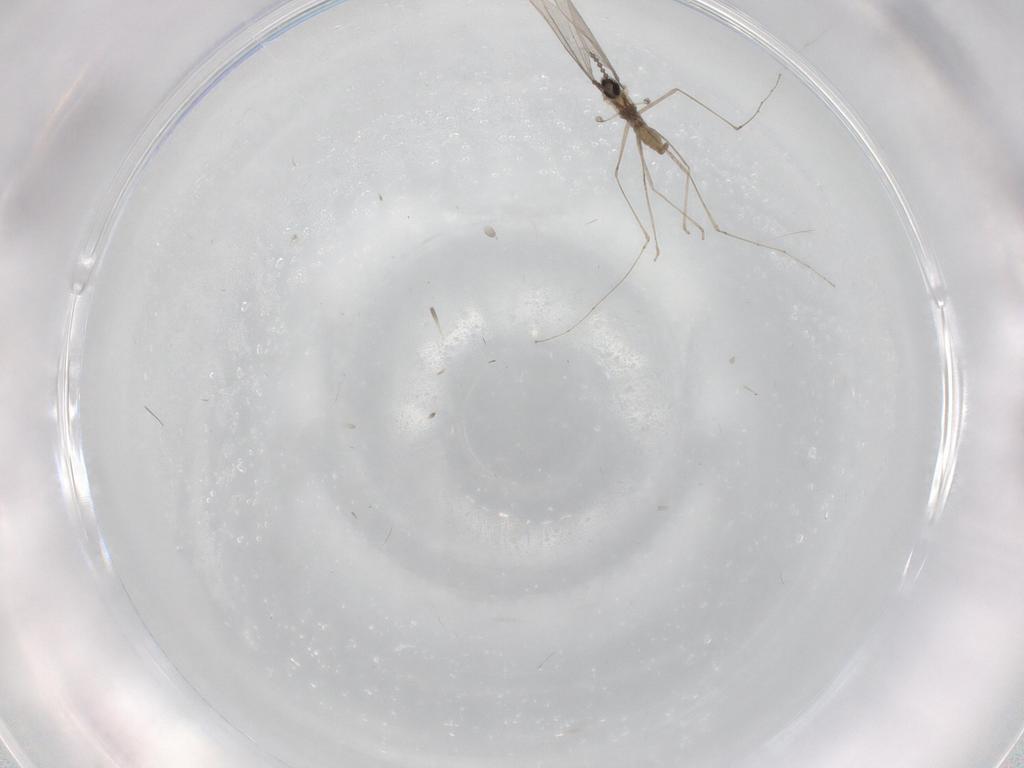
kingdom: Animalia
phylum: Arthropoda
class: Insecta
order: Diptera
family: Cecidomyiidae
